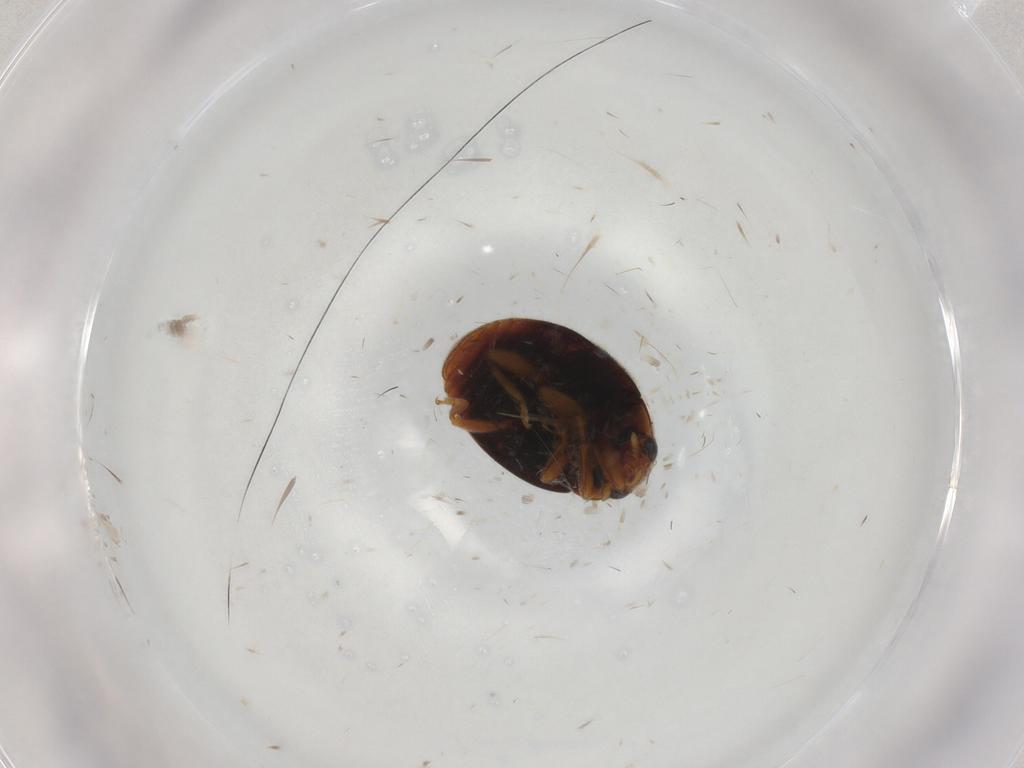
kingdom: Animalia
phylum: Arthropoda
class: Insecta
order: Coleoptera
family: Coccinellidae
